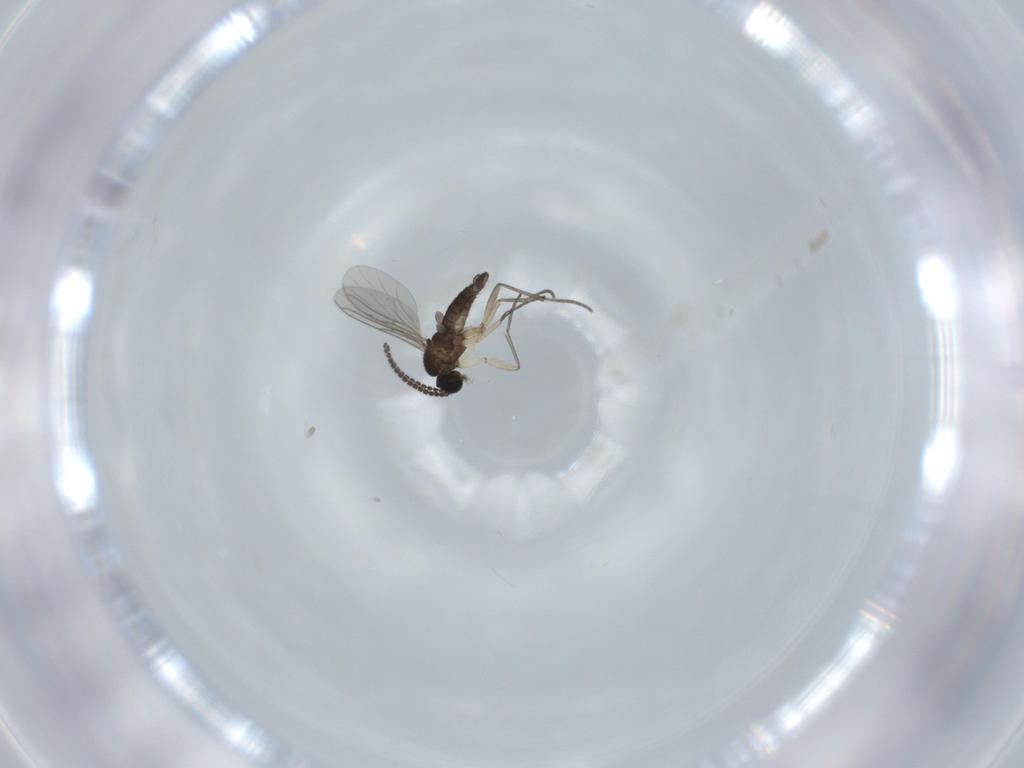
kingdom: Animalia
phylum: Arthropoda
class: Insecta
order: Diptera
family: Sciaridae
